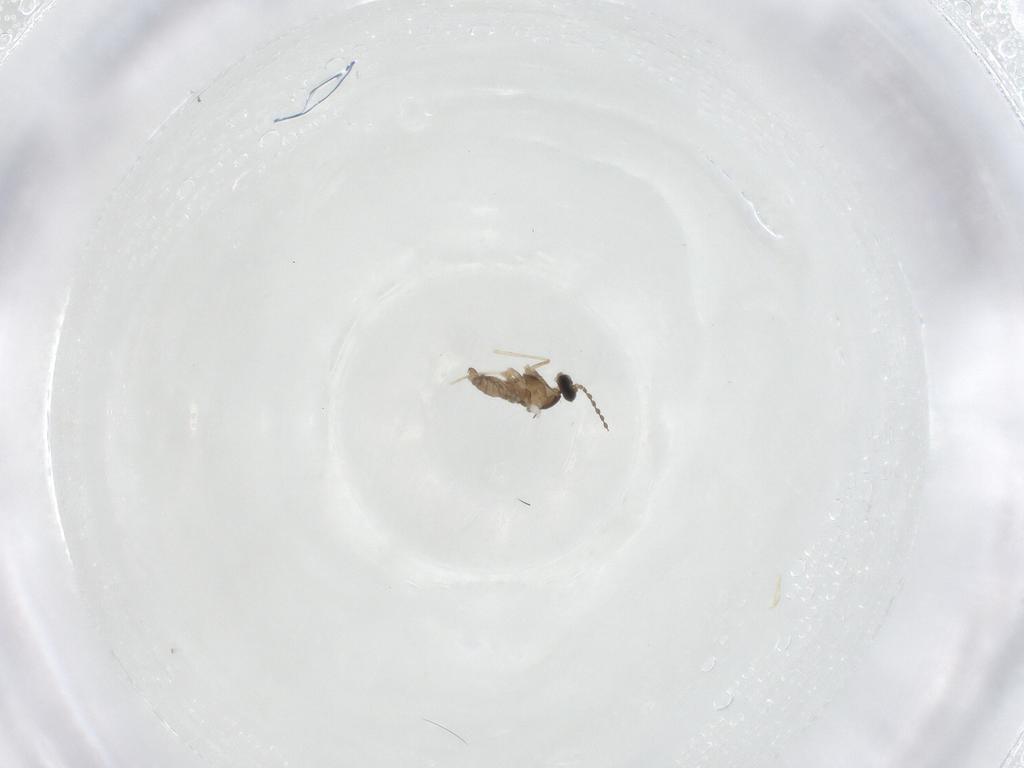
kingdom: Animalia
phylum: Arthropoda
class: Insecta
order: Diptera
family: Cecidomyiidae
